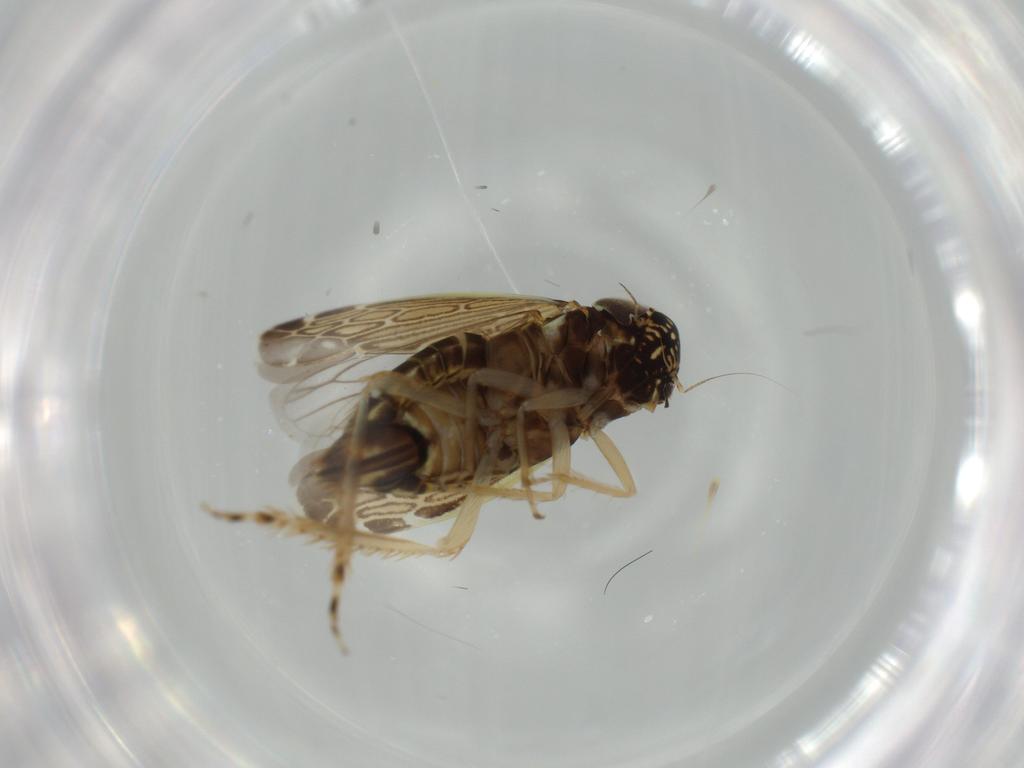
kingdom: Animalia
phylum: Arthropoda
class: Insecta
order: Hemiptera
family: Cicadellidae
